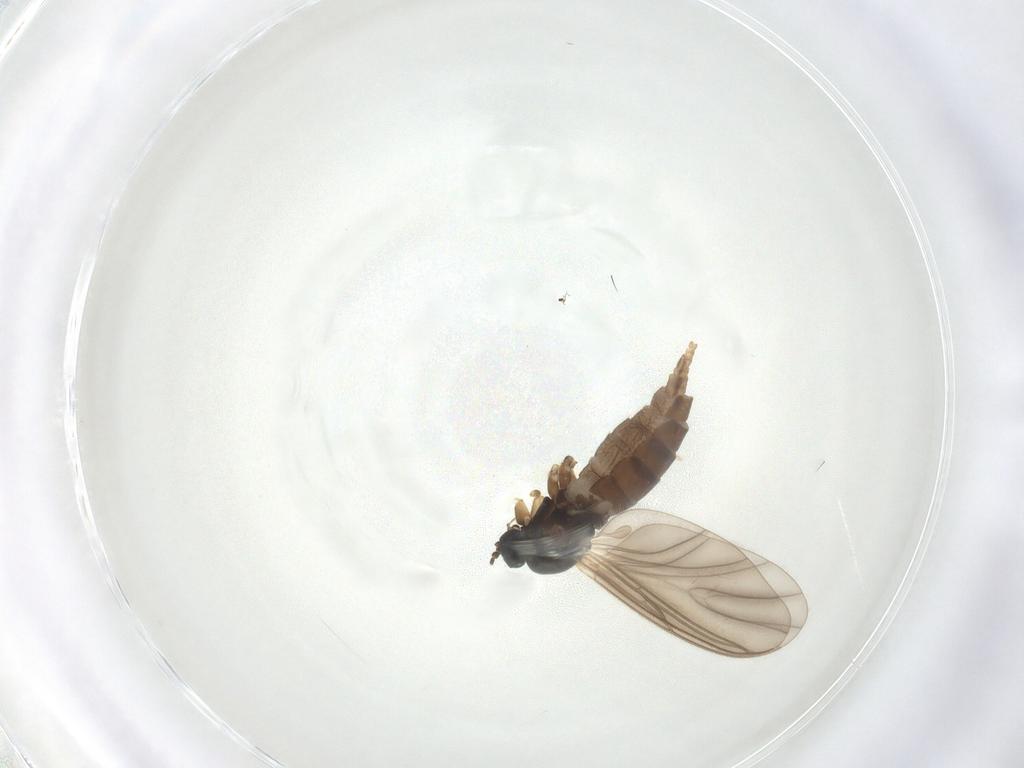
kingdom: Animalia
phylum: Arthropoda
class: Insecta
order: Diptera
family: Sciaridae
